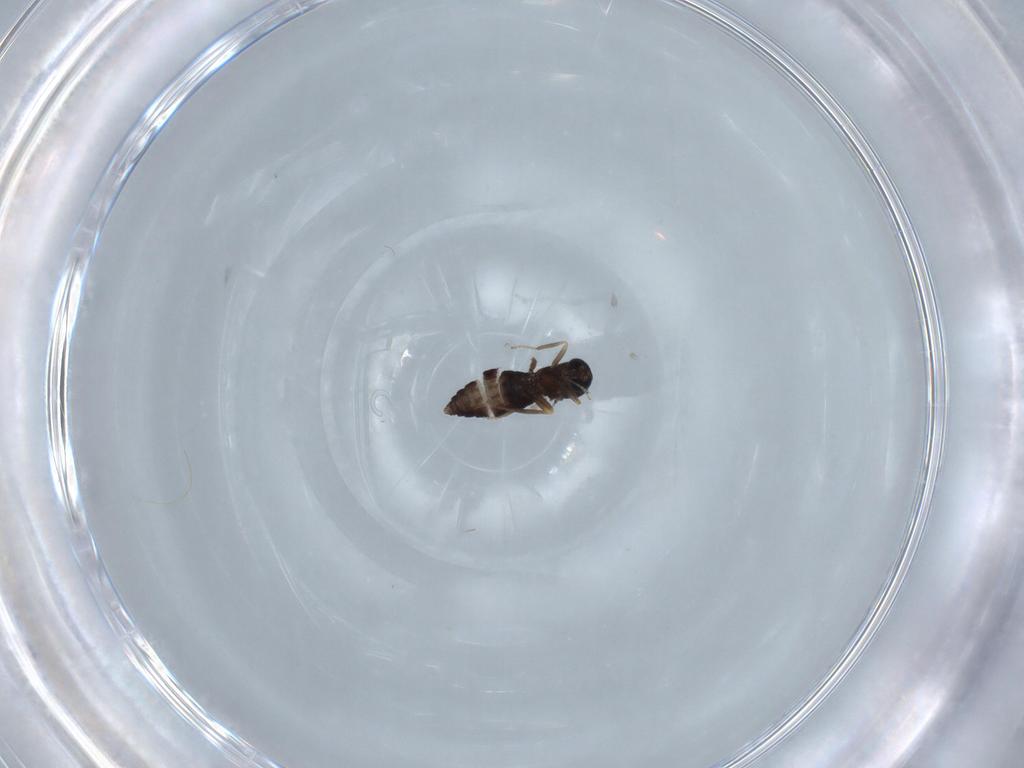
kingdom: Animalia
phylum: Arthropoda
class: Insecta
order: Diptera
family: Ceratopogonidae
